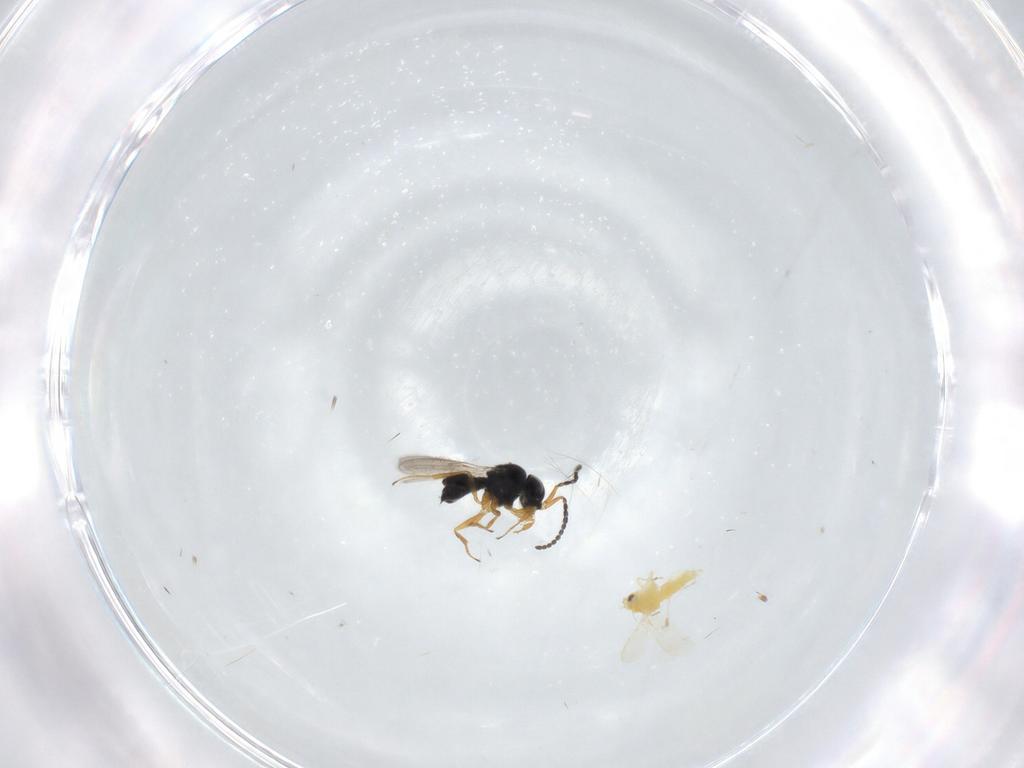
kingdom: Animalia
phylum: Arthropoda
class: Insecta
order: Hymenoptera
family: Scelionidae
